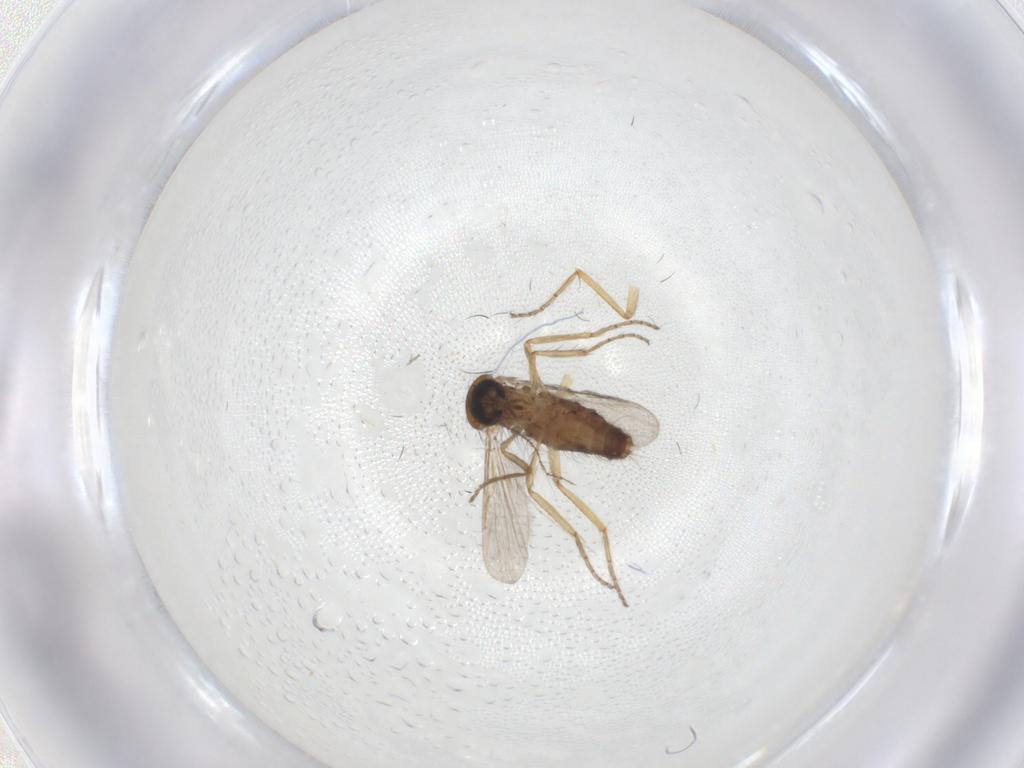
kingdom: Animalia
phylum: Arthropoda
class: Insecta
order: Diptera
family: Ceratopogonidae
